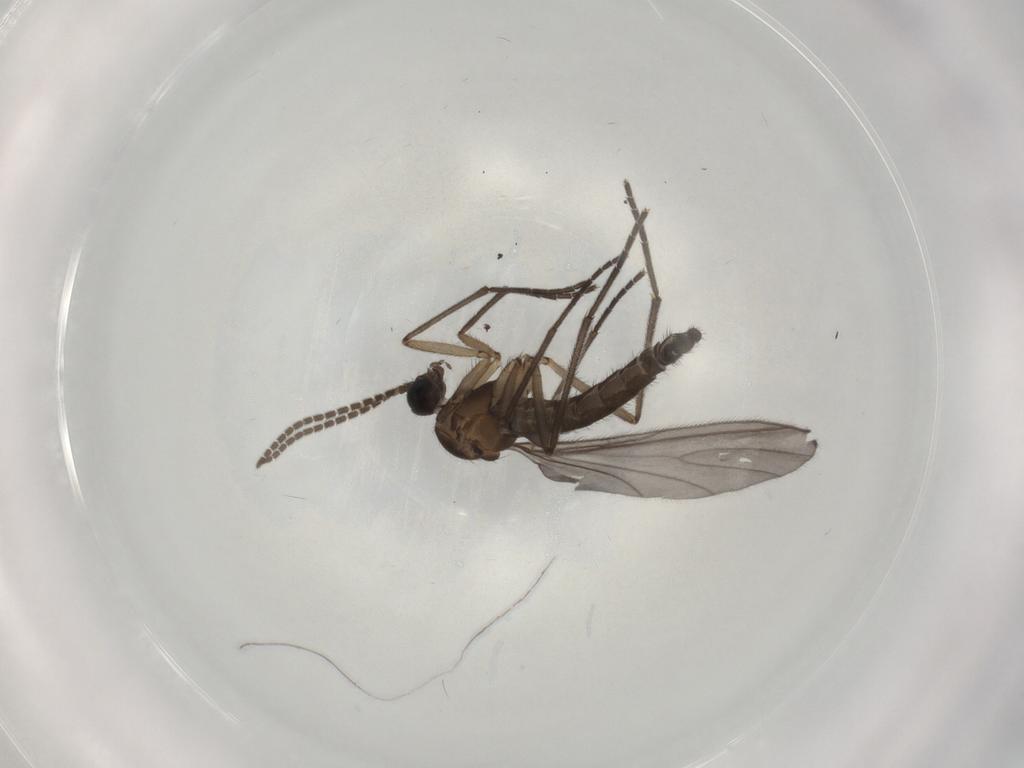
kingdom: Animalia
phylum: Arthropoda
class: Insecta
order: Diptera
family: Sciaridae
